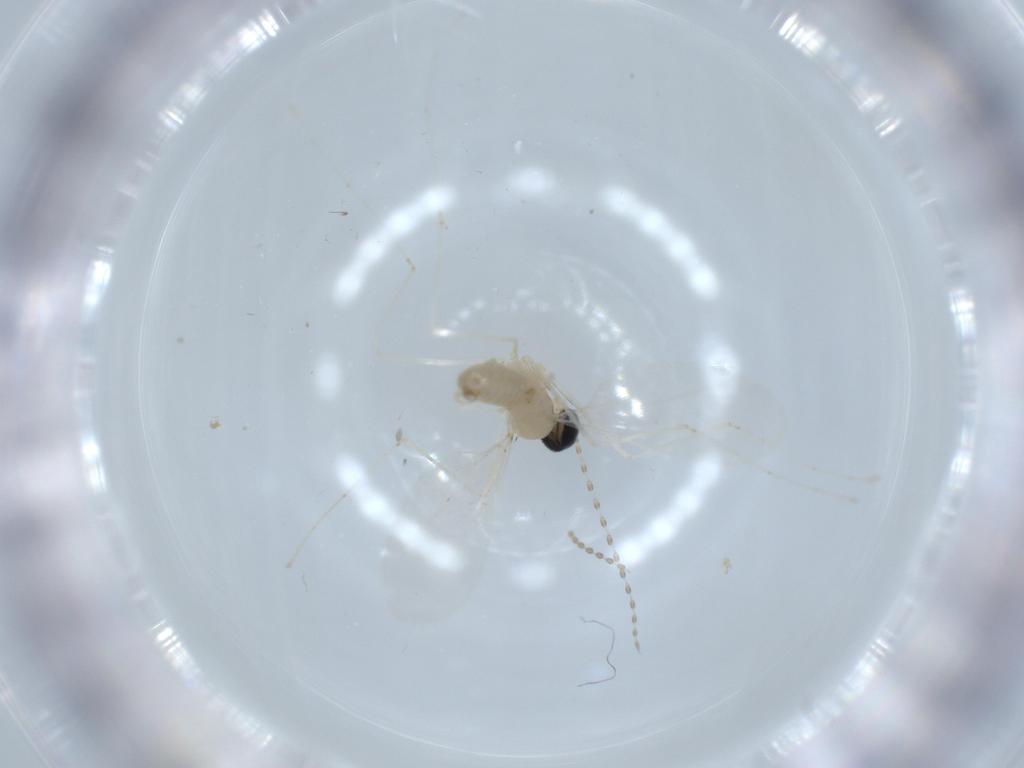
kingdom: Animalia
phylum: Arthropoda
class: Insecta
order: Diptera
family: Cecidomyiidae
